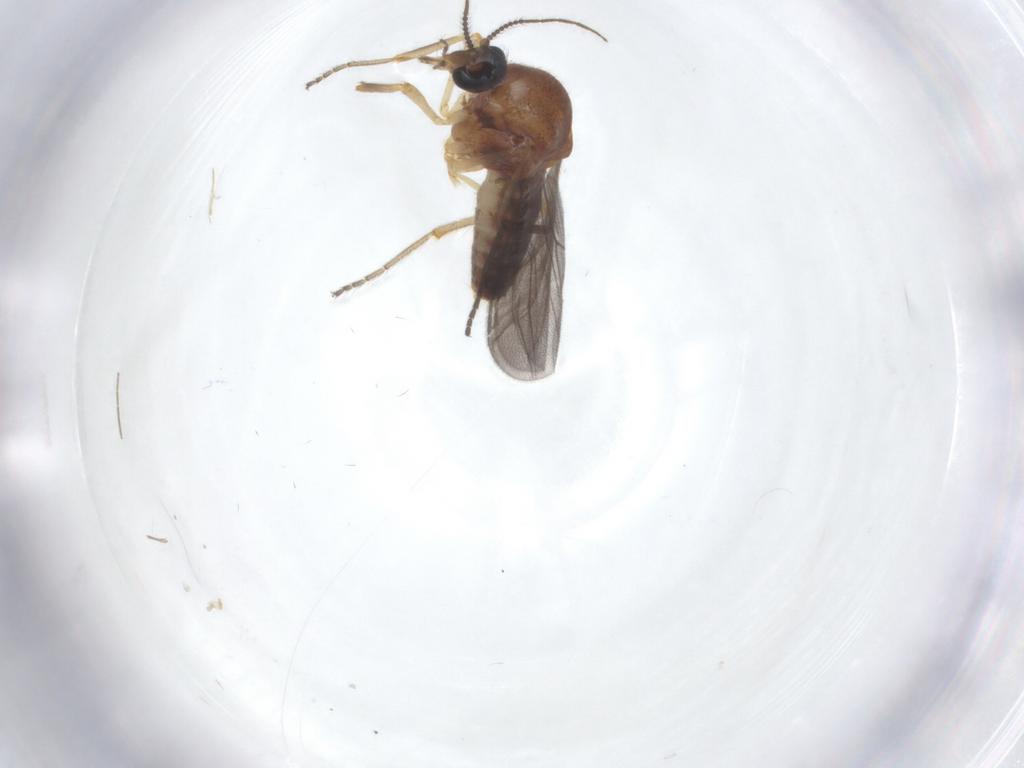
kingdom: Animalia
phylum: Arthropoda
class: Insecta
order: Diptera
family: Ceratopogonidae
